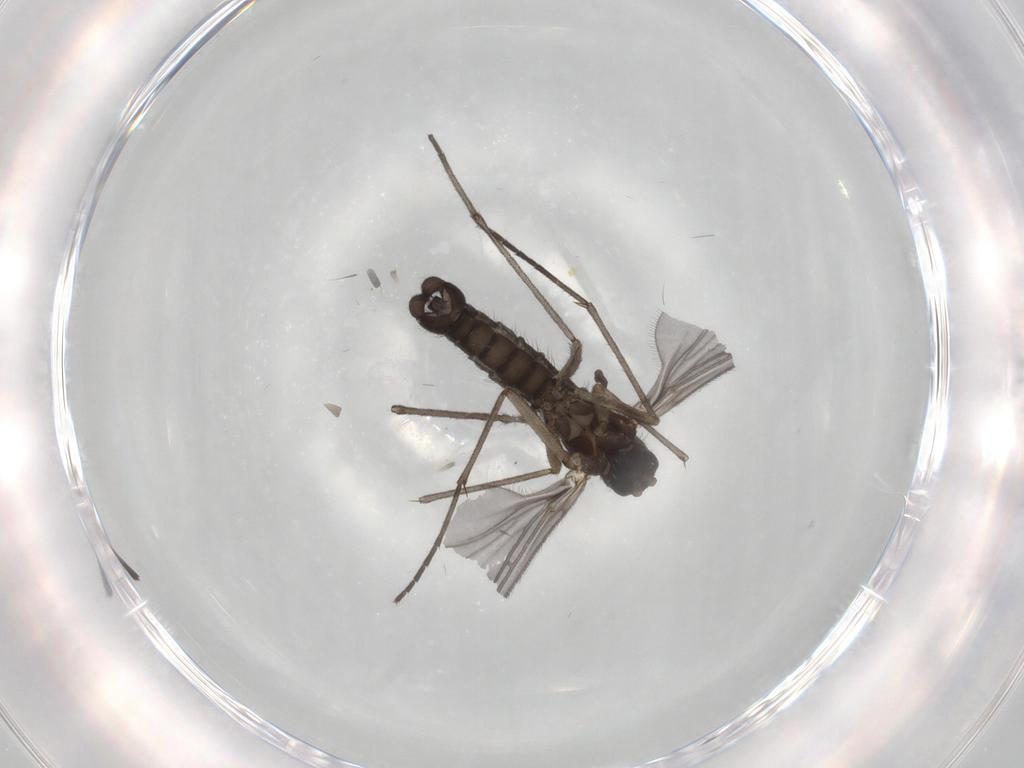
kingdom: Animalia
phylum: Arthropoda
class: Insecta
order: Diptera
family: Sciaridae
